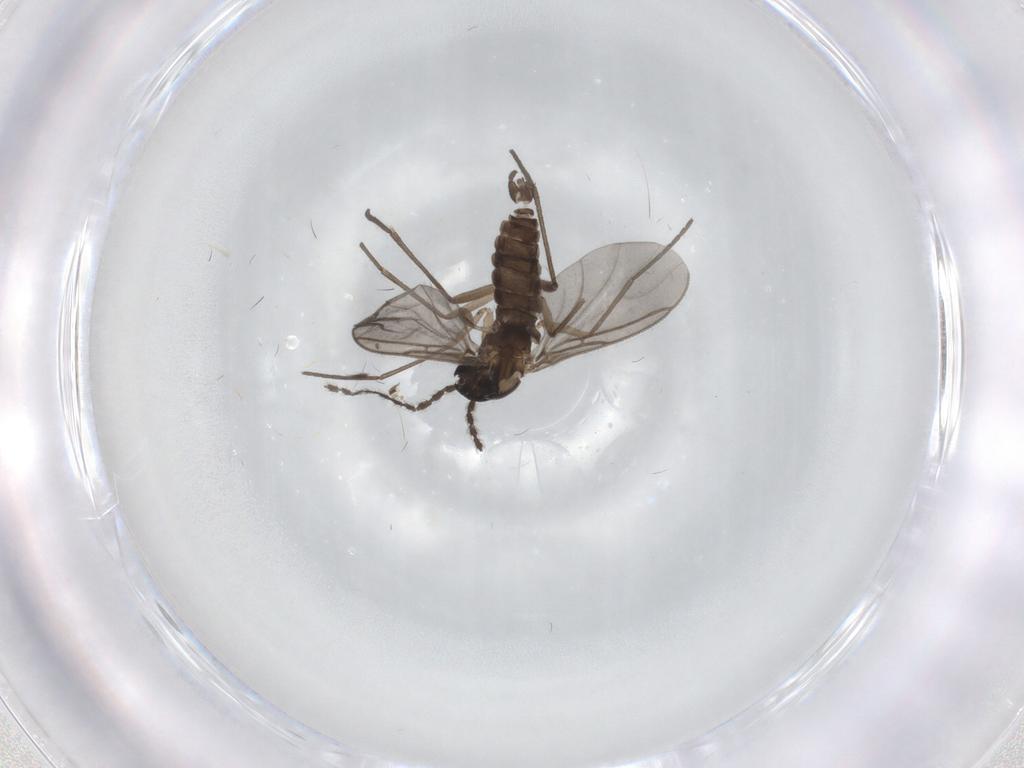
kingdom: Animalia
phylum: Arthropoda
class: Insecta
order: Diptera
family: Sciaridae
